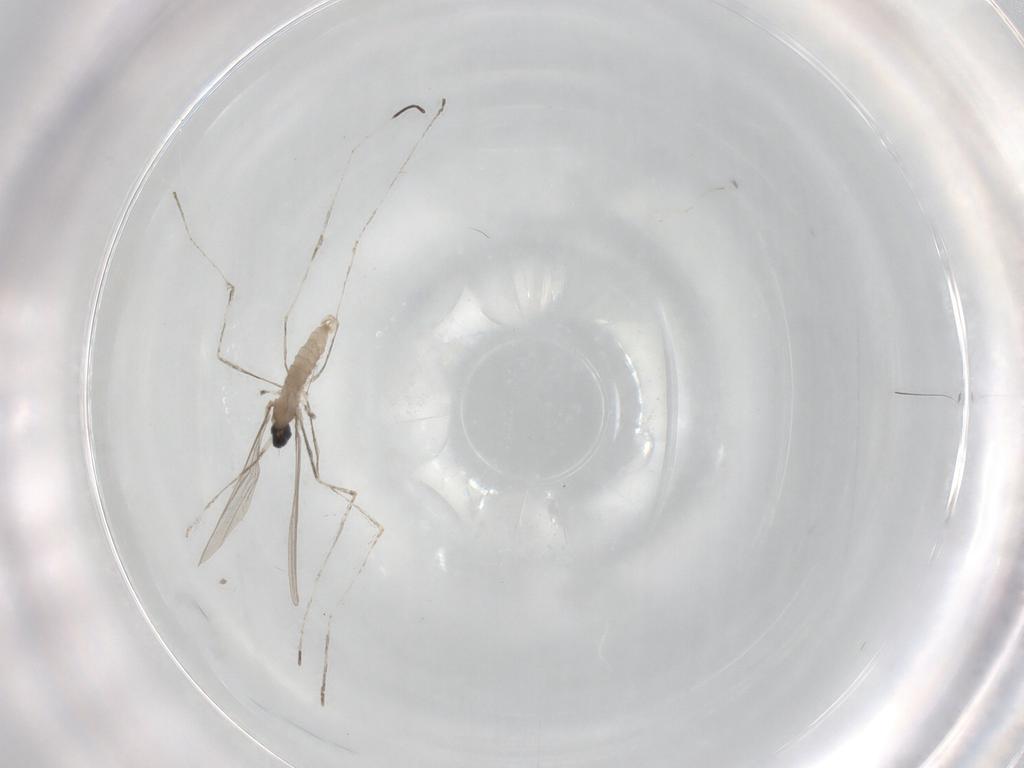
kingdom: Animalia
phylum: Arthropoda
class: Insecta
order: Diptera
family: Cecidomyiidae
